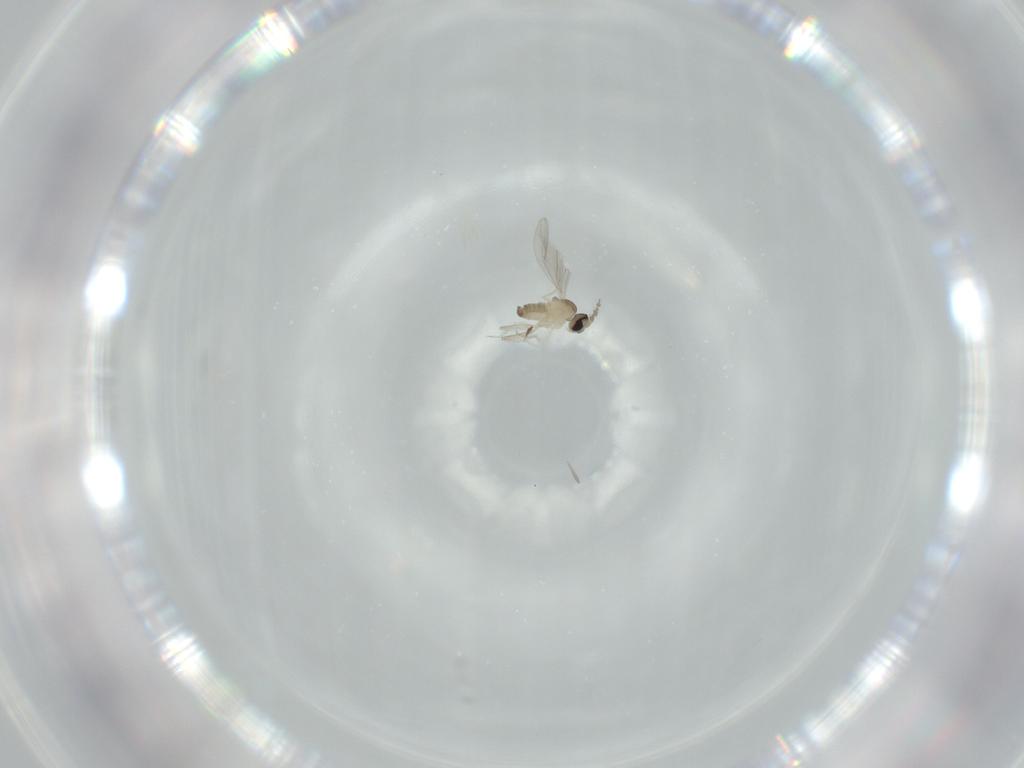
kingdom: Animalia
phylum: Arthropoda
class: Insecta
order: Diptera
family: Cecidomyiidae
